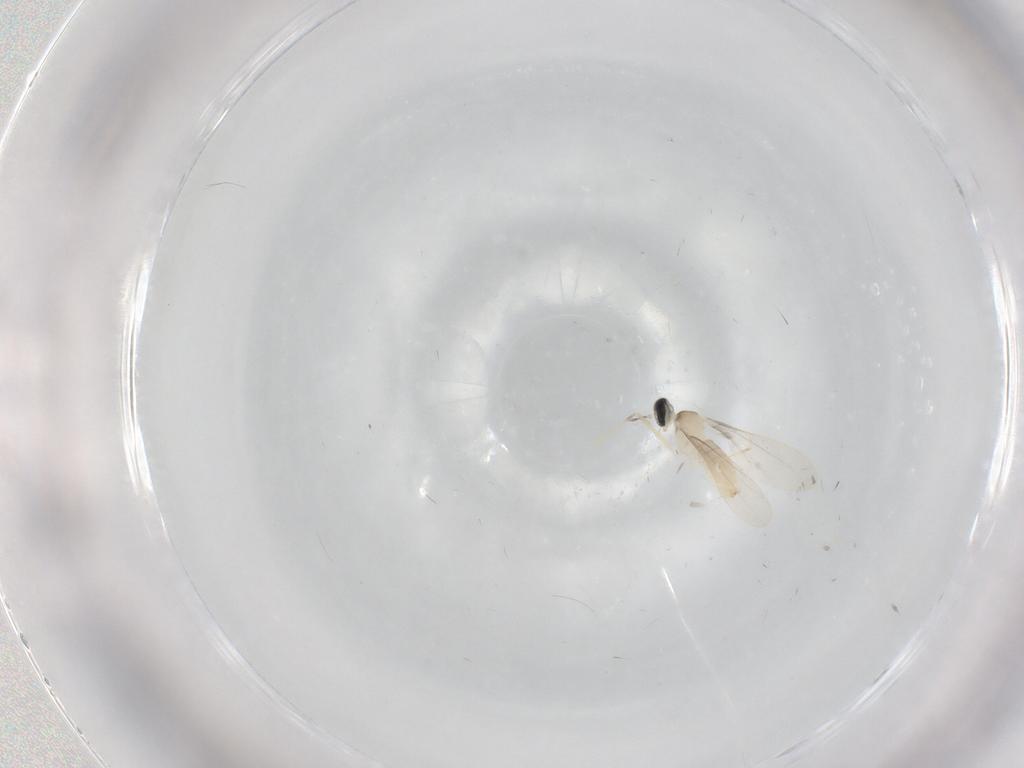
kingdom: Animalia
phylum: Arthropoda
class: Insecta
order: Diptera
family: Cecidomyiidae
